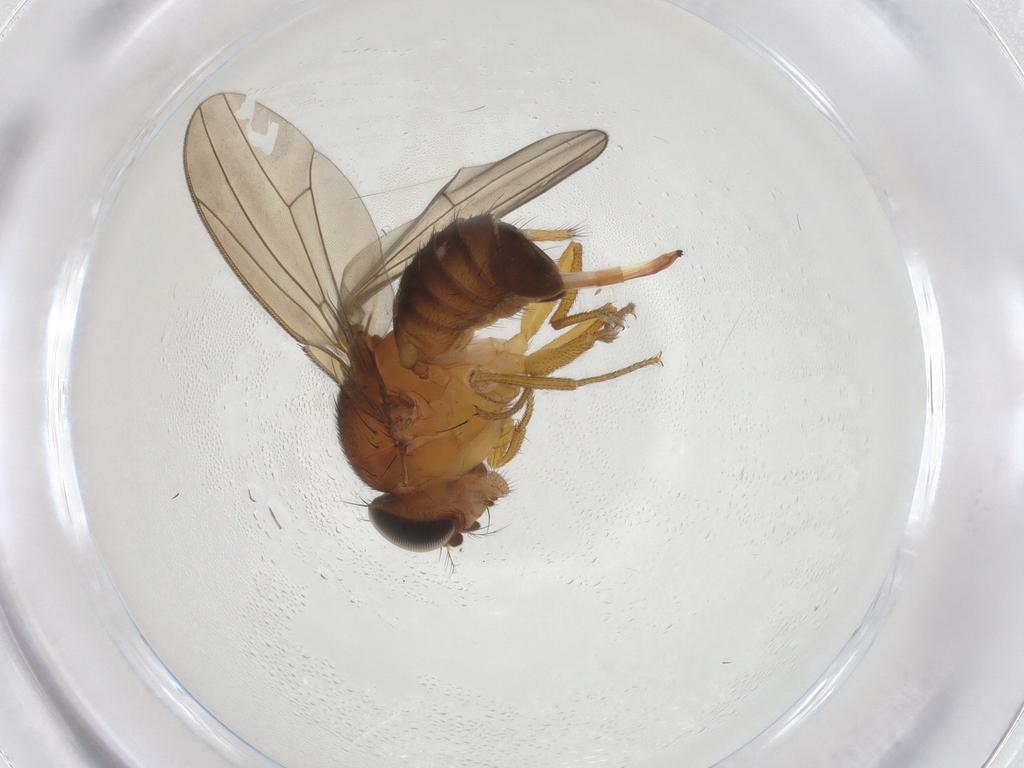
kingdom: Animalia
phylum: Arthropoda
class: Insecta
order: Diptera
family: Drosophilidae
